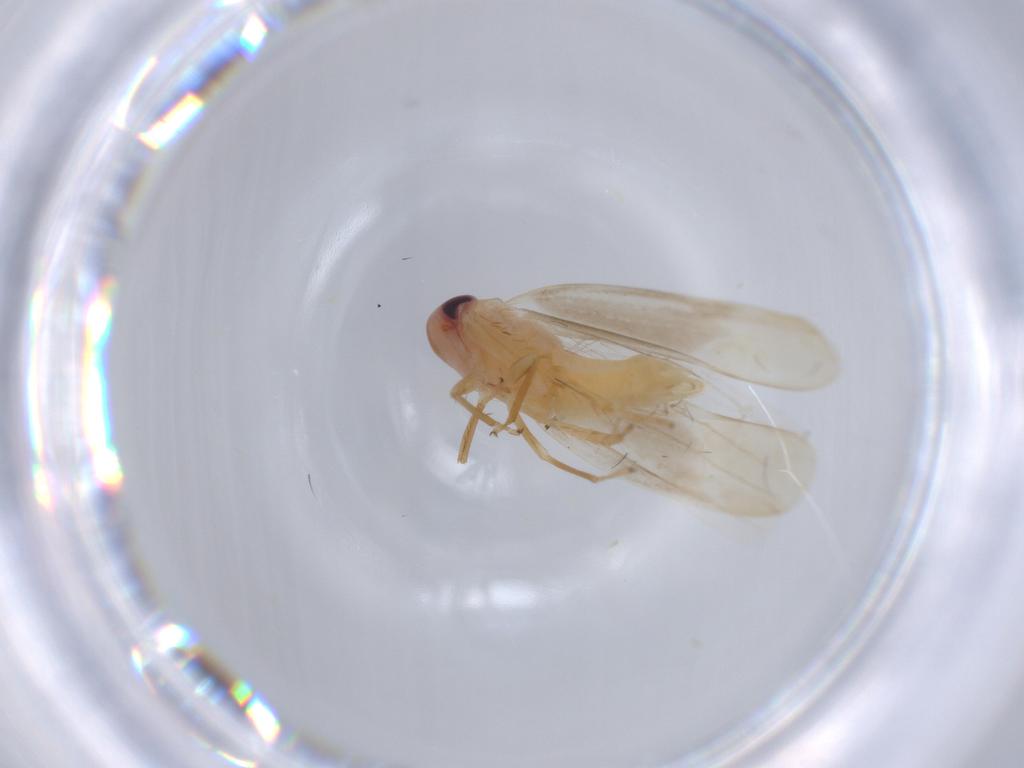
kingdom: Animalia
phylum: Arthropoda
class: Insecta
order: Hemiptera
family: Cicadellidae
